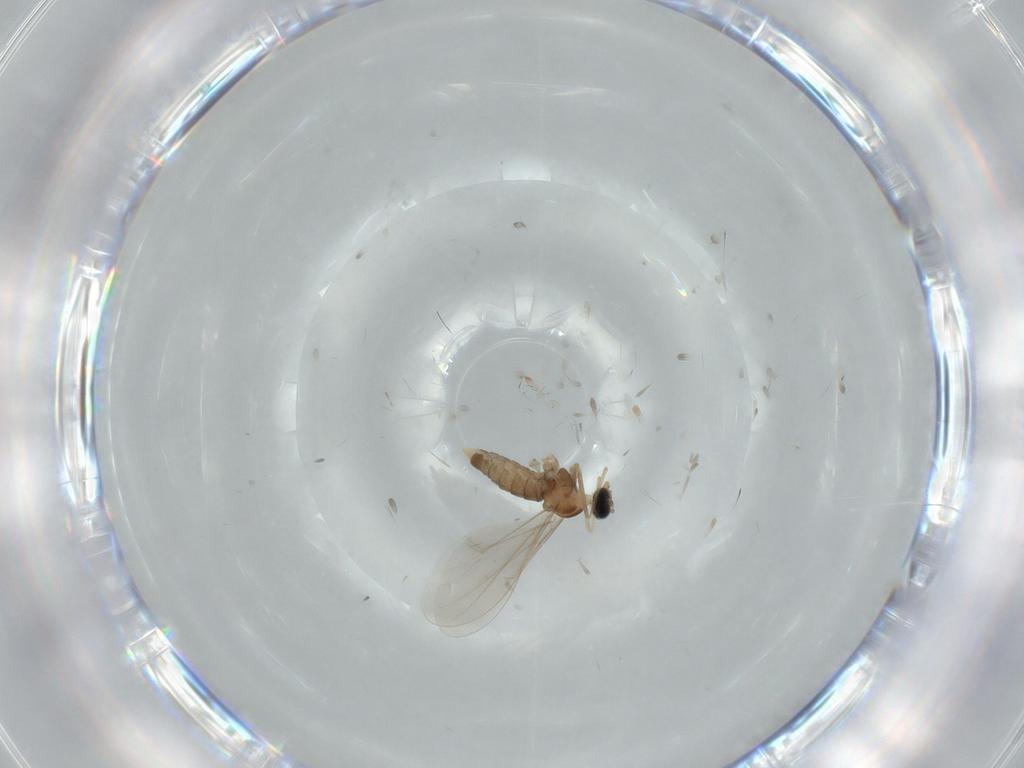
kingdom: Animalia
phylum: Arthropoda
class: Insecta
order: Diptera
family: Cecidomyiidae
